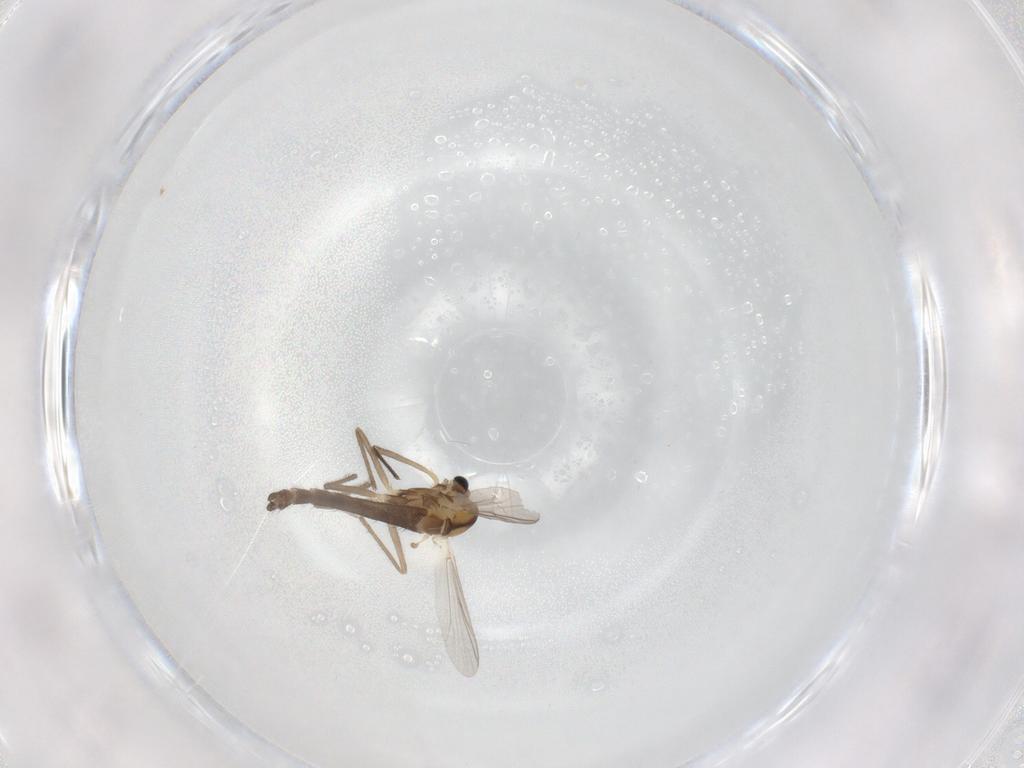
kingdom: Animalia
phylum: Arthropoda
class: Insecta
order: Diptera
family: Chironomidae
